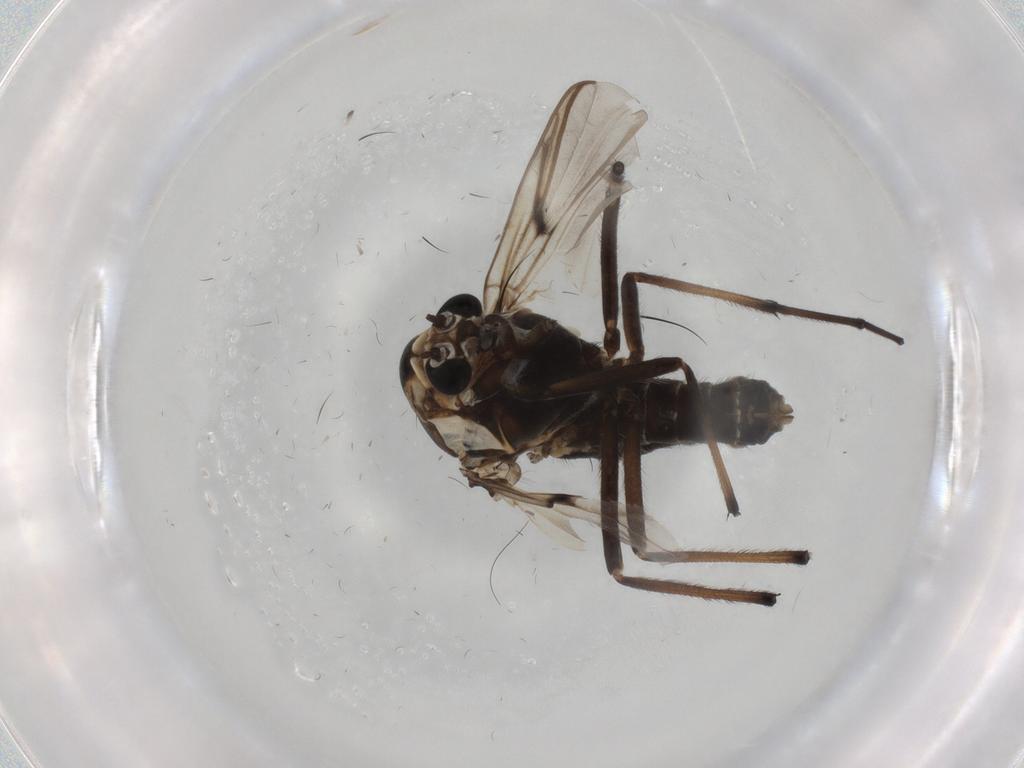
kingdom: Animalia
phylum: Arthropoda
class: Insecta
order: Diptera
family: Chironomidae
